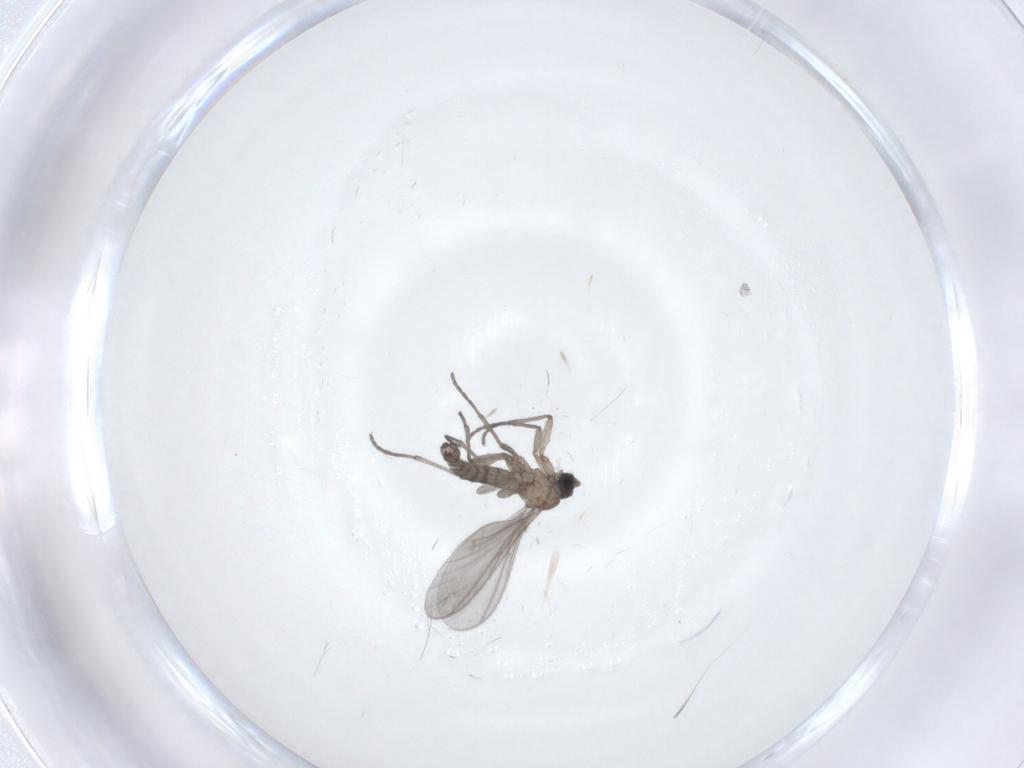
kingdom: Animalia
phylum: Arthropoda
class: Insecta
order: Diptera
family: Sciaridae
